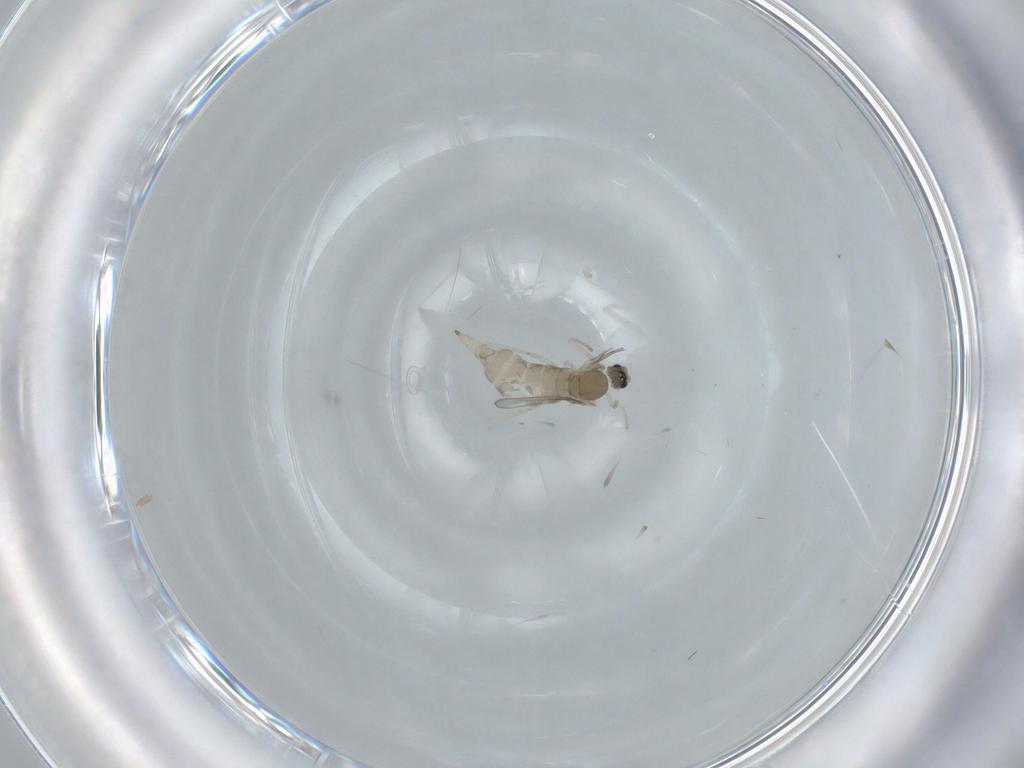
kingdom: Animalia
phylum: Arthropoda
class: Insecta
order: Diptera
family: Cecidomyiidae
